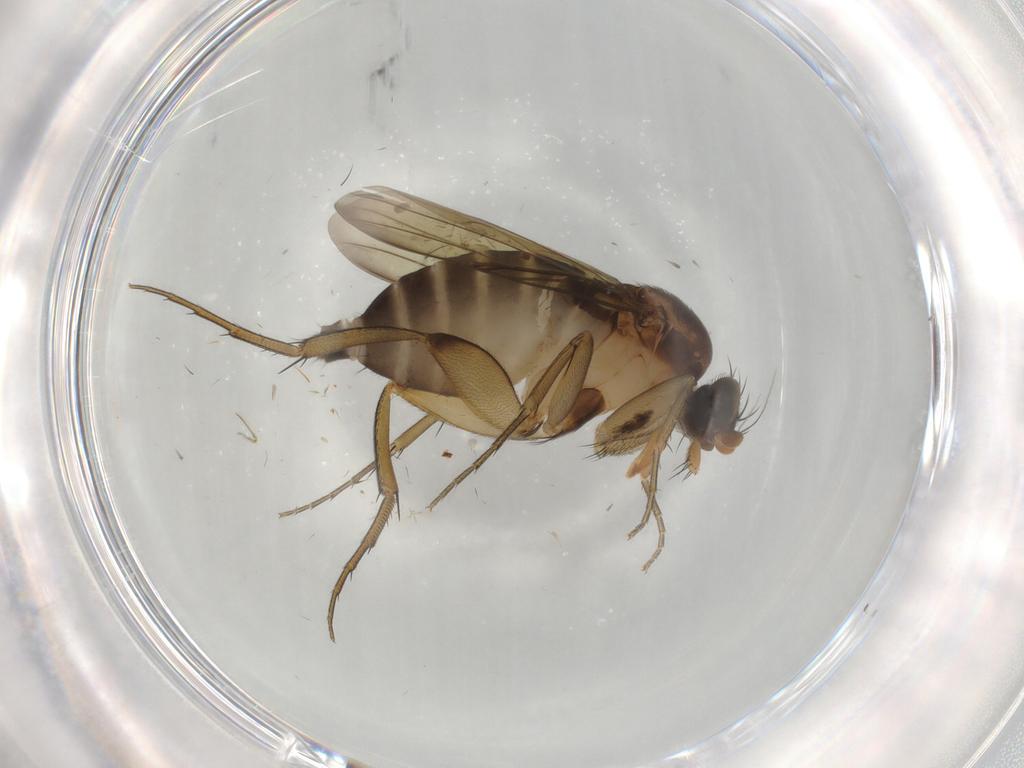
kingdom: Animalia
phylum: Arthropoda
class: Insecta
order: Diptera
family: Phoridae
